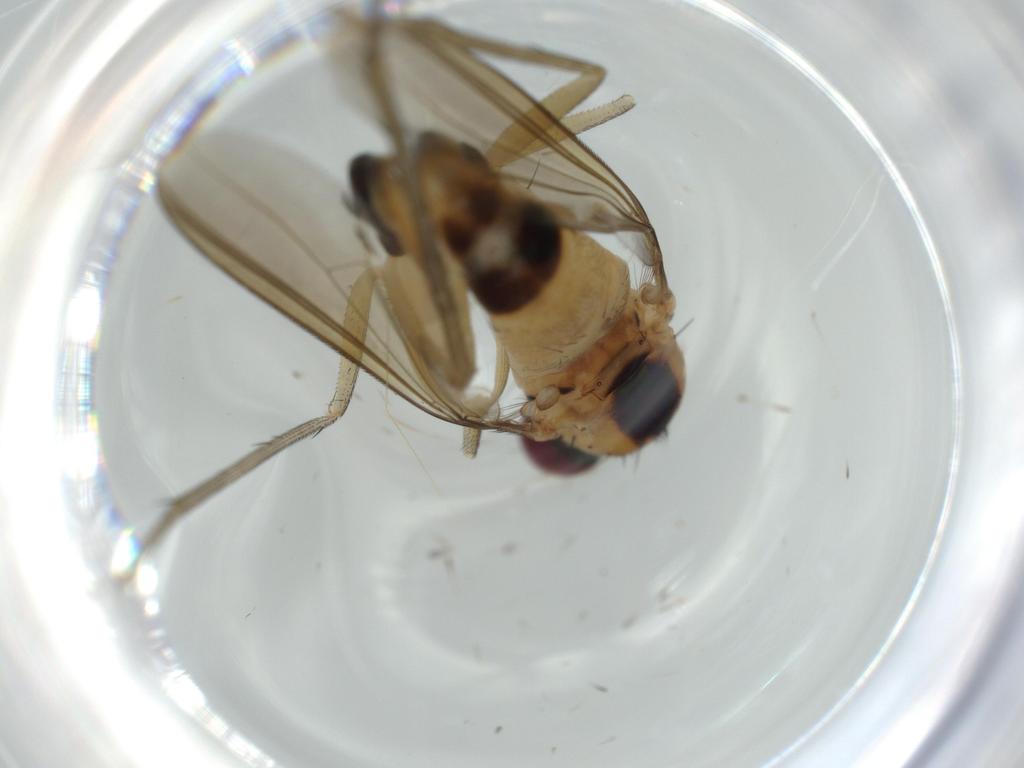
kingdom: Animalia
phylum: Arthropoda
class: Insecta
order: Diptera
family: Dolichopodidae
